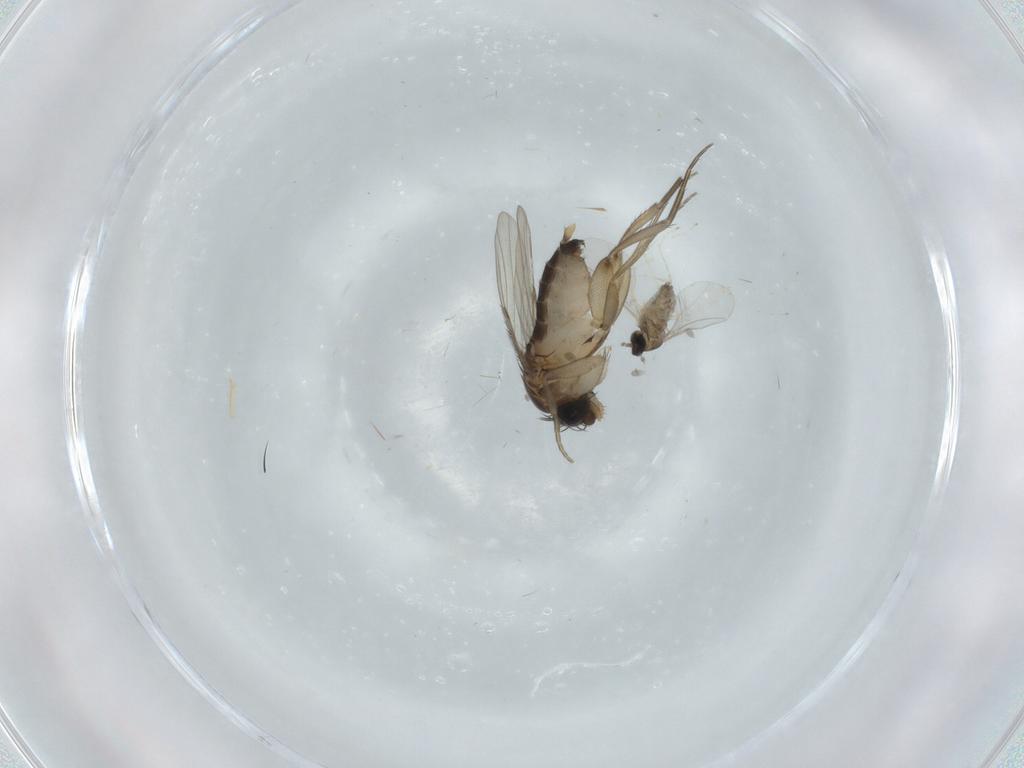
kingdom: Animalia
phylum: Arthropoda
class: Insecta
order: Diptera
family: Cecidomyiidae
